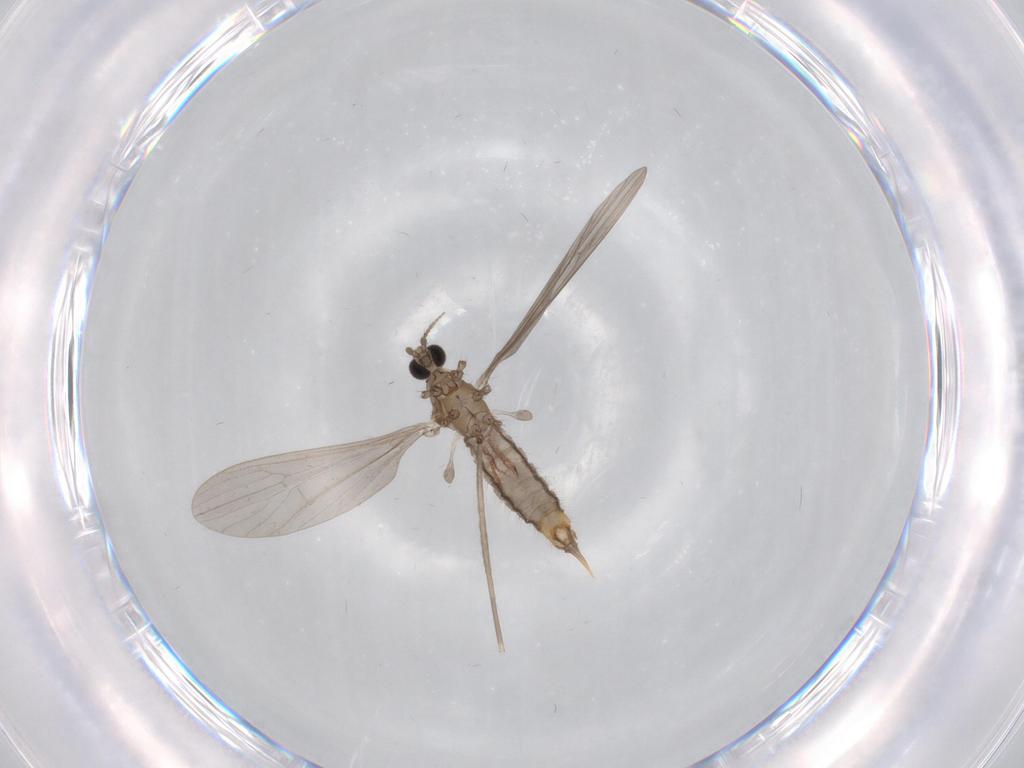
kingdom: Animalia
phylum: Arthropoda
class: Insecta
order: Diptera
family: Limoniidae
